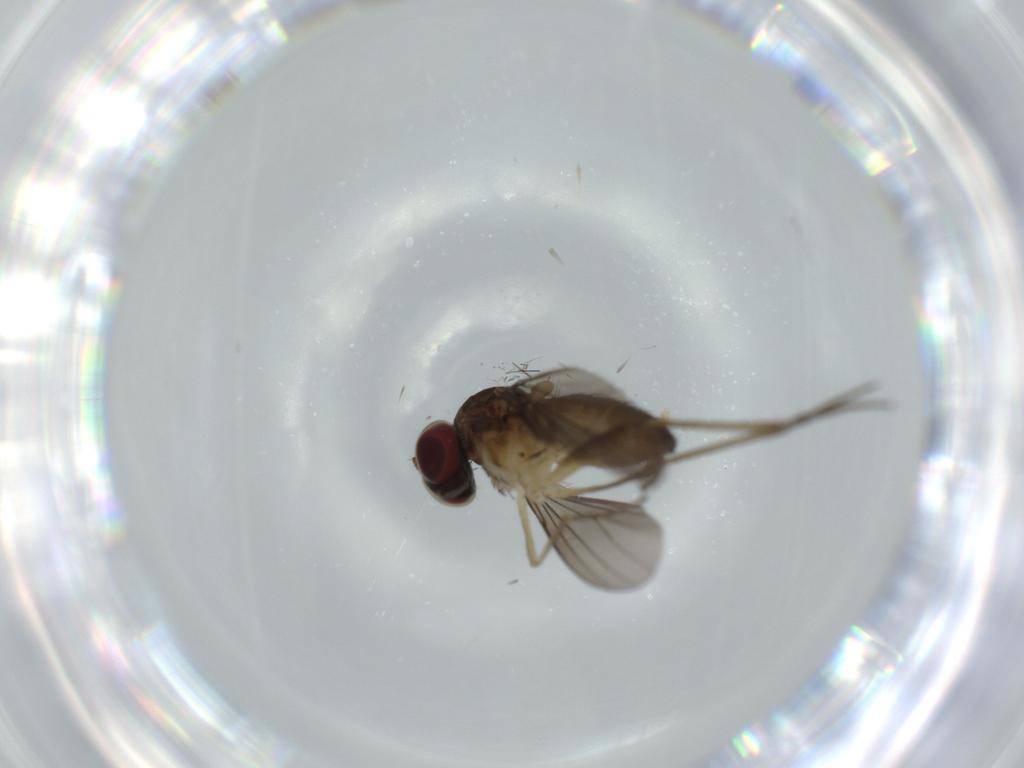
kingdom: Animalia
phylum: Arthropoda
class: Insecta
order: Diptera
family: Dolichopodidae
